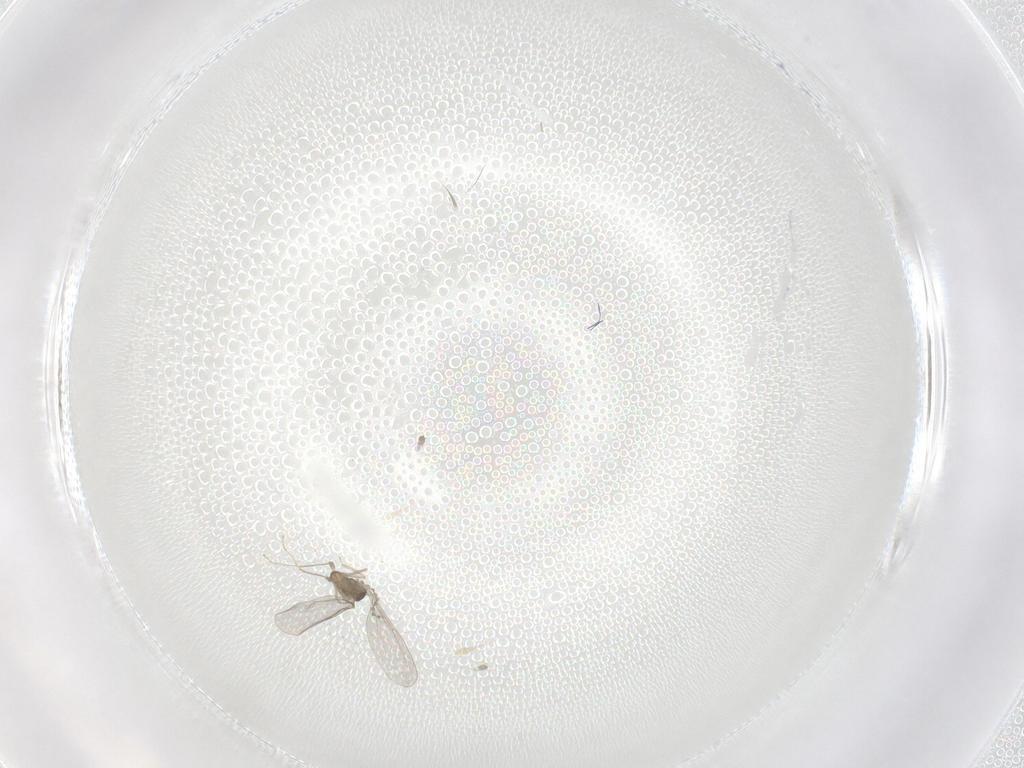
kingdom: Animalia
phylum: Arthropoda
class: Insecta
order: Diptera
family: Cecidomyiidae
